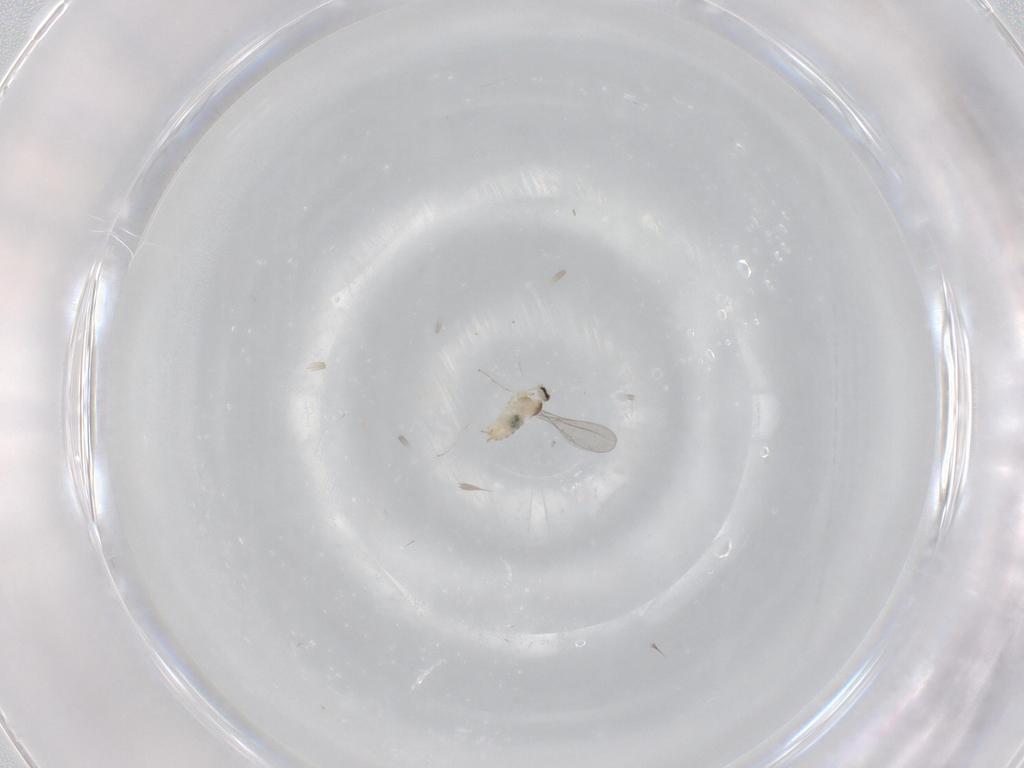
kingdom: Animalia
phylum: Arthropoda
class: Insecta
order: Diptera
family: Cecidomyiidae
